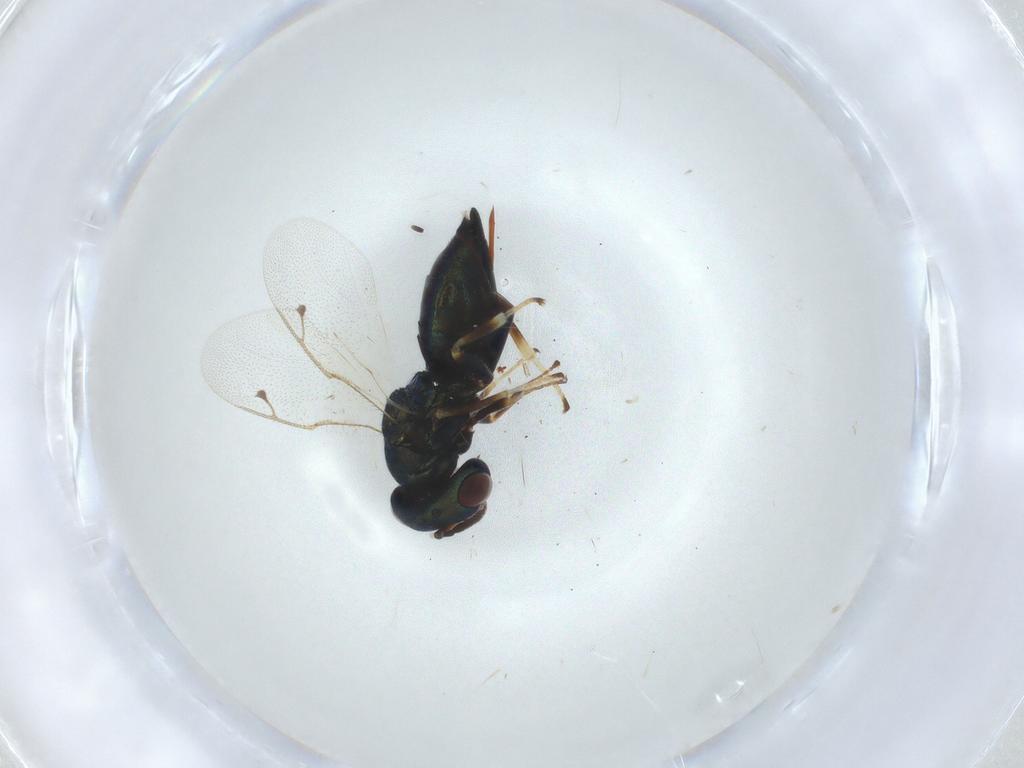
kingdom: Animalia
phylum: Arthropoda
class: Insecta
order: Hymenoptera
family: Pteromalidae
